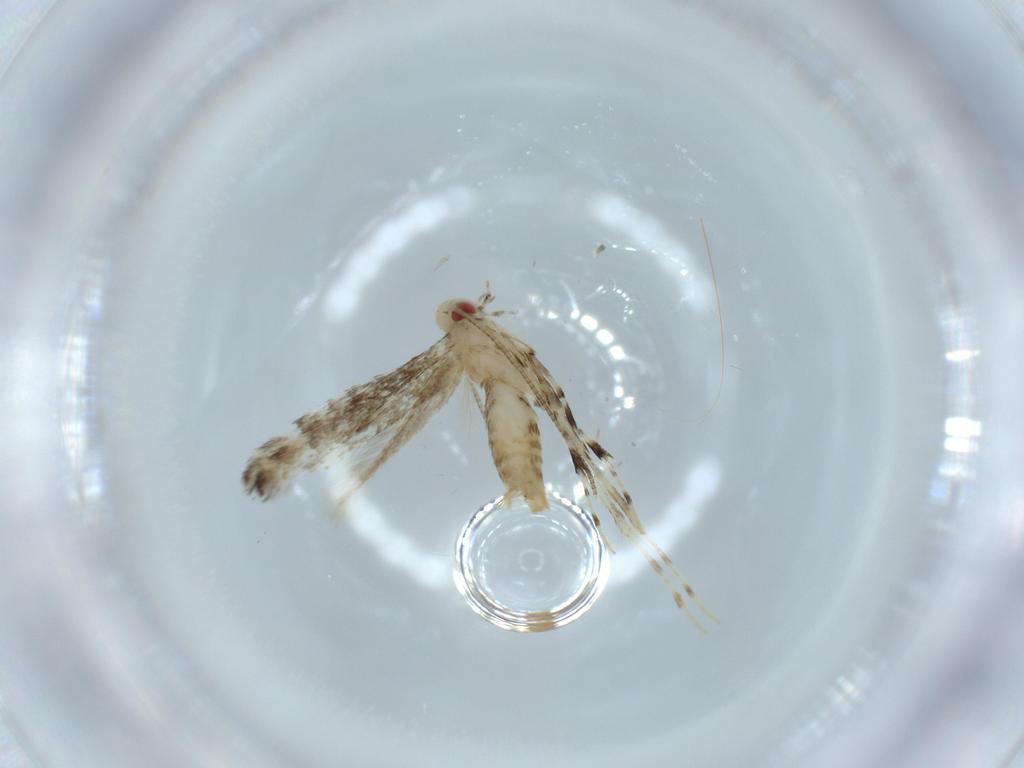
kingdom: Animalia
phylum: Arthropoda
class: Insecta
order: Lepidoptera
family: Gracillariidae
